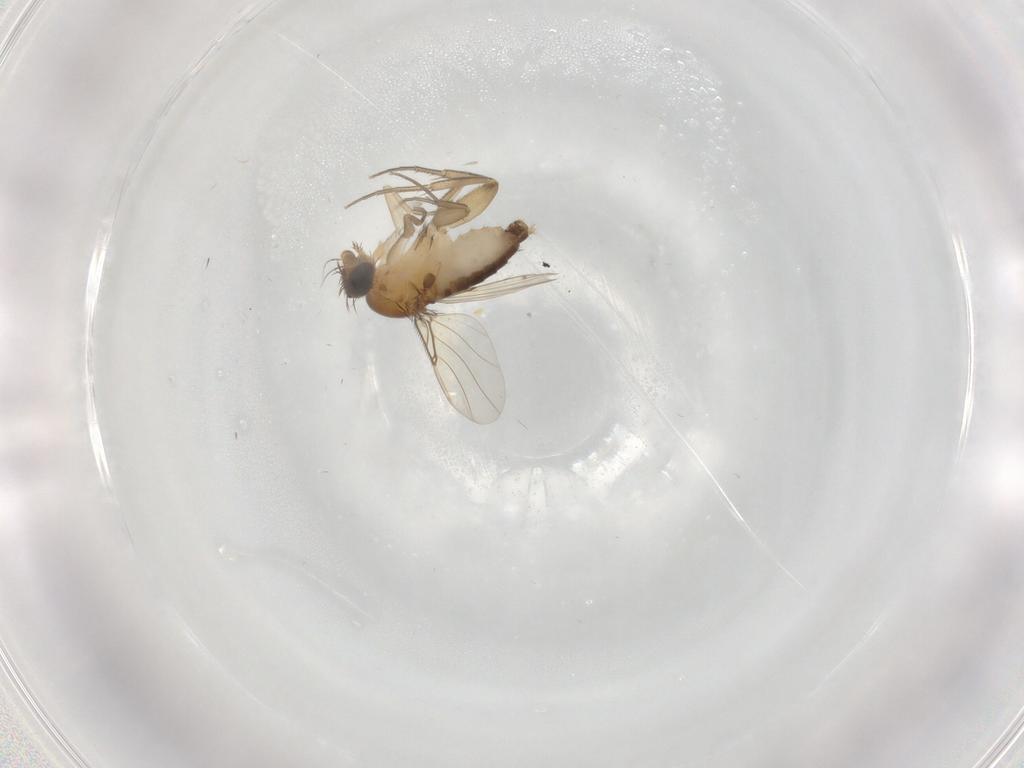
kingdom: Animalia
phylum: Arthropoda
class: Insecta
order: Diptera
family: Phoridae
